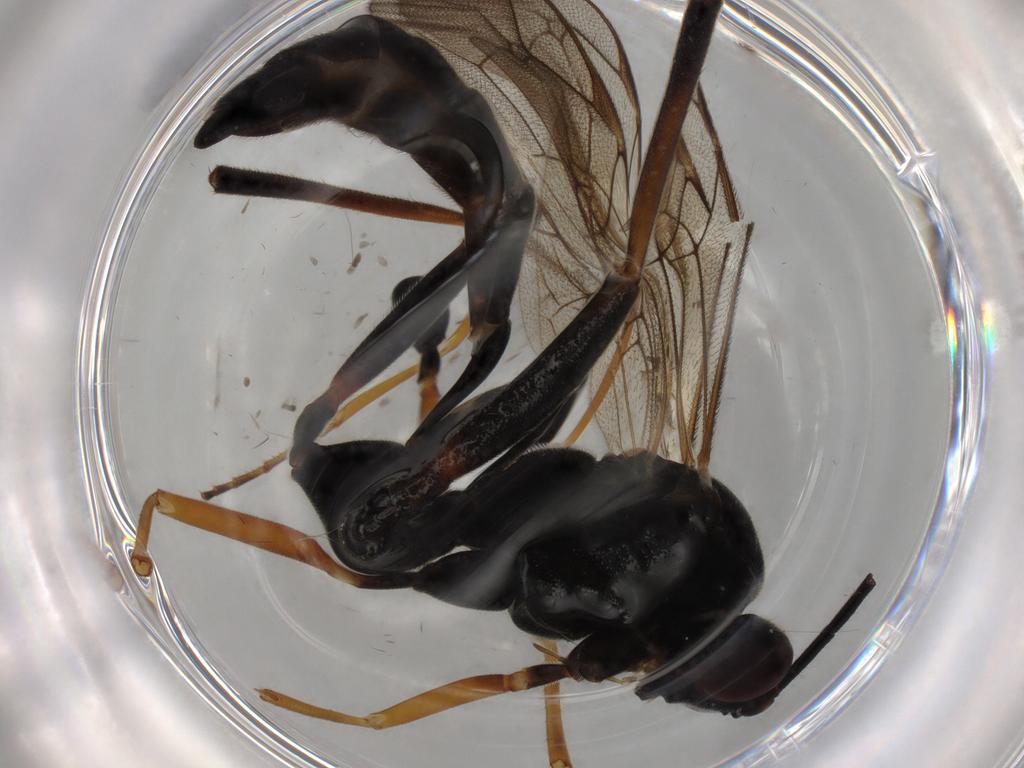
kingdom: Animalia
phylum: Arthropoda
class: Insecta
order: Hymenoptera
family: Ichneumonidae
